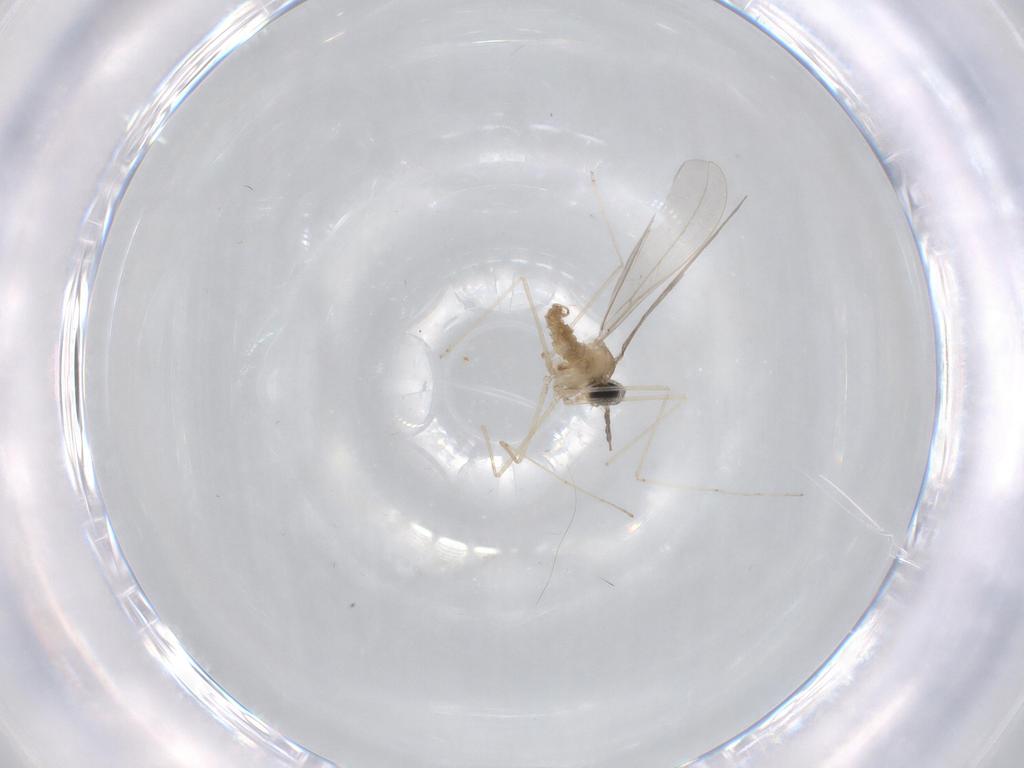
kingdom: Animalia
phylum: Arthropoda
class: Insecta
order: Diptera
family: Cecidomyiidae
